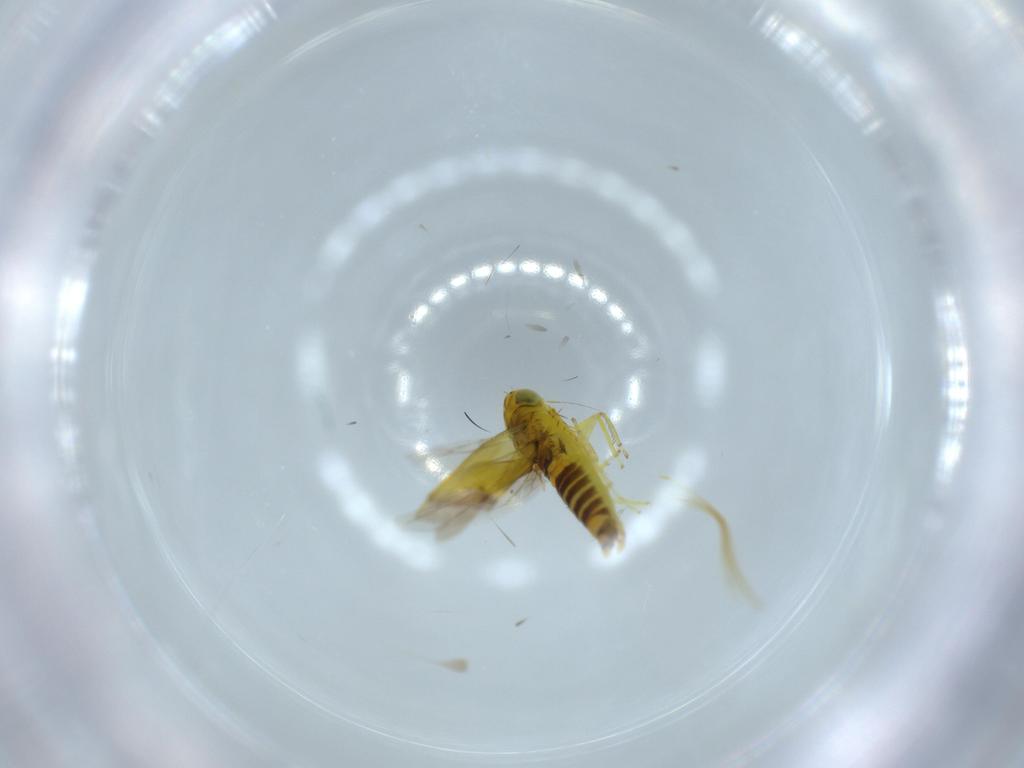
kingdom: Animalia
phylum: Arthropoda
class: Insecta
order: Hemiptera
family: Cicadellidae
